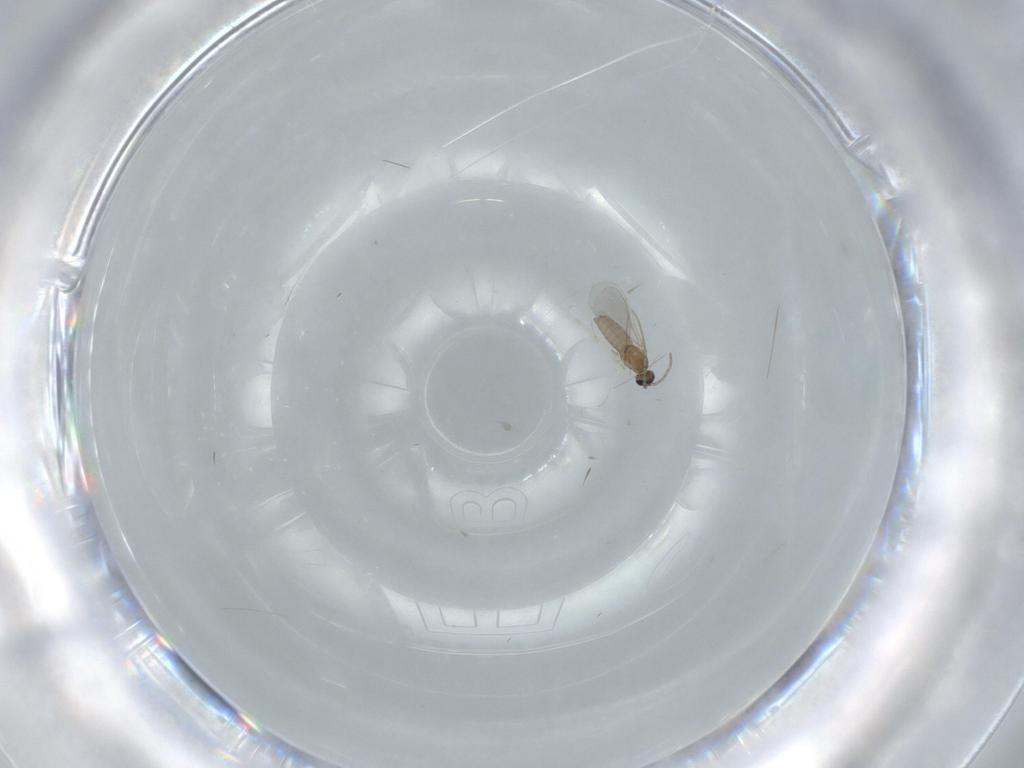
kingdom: Animalia
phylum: Arthropoda
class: Insecta
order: Diptera
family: Cecidomyiidae
